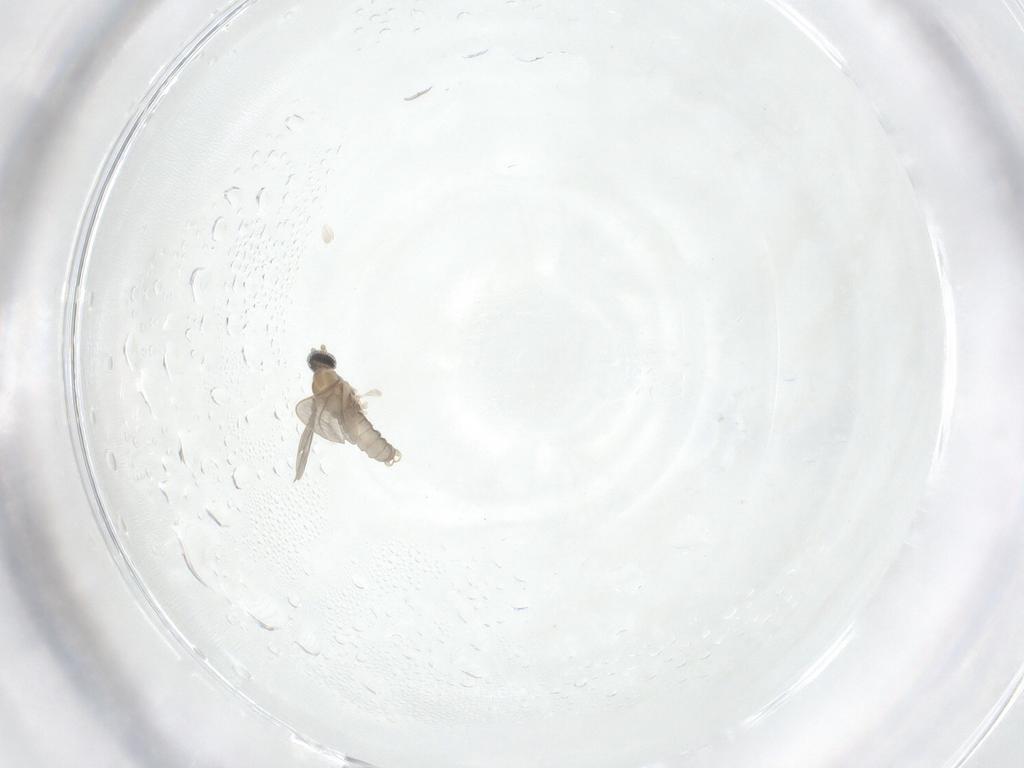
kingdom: Animalia
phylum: Arthropoda
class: Insecta
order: Diptera
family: Cecidomyiidae
